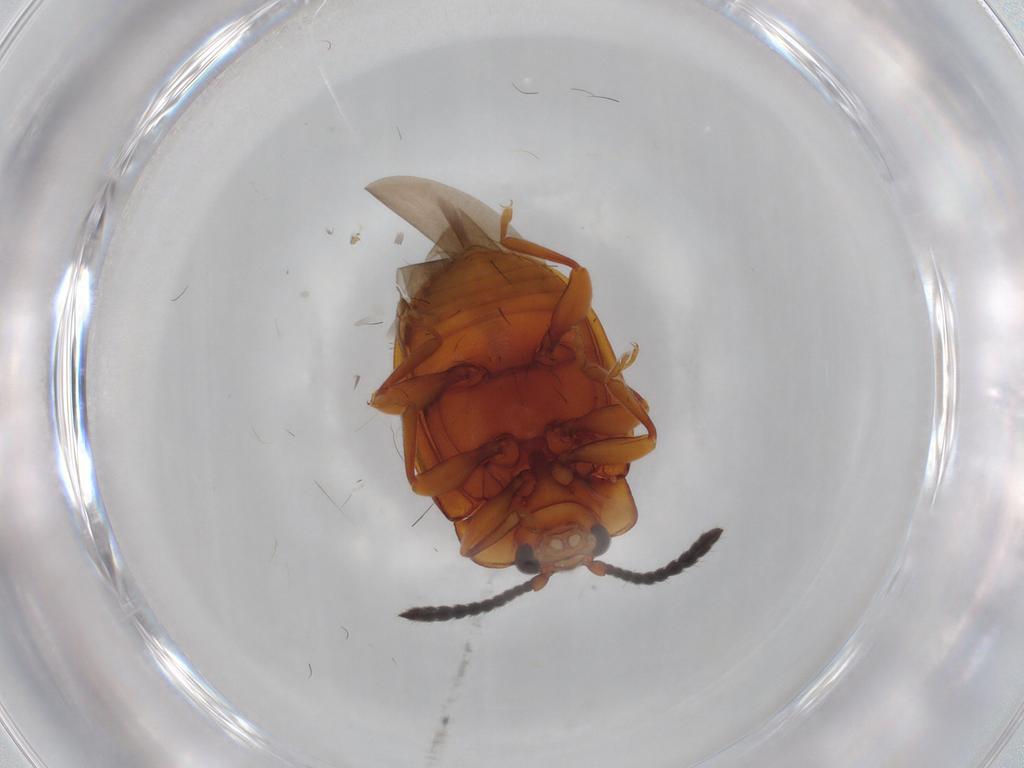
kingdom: Animalia
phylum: Arthropoda
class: Insecta
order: Coleoptera
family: Endomychidae
